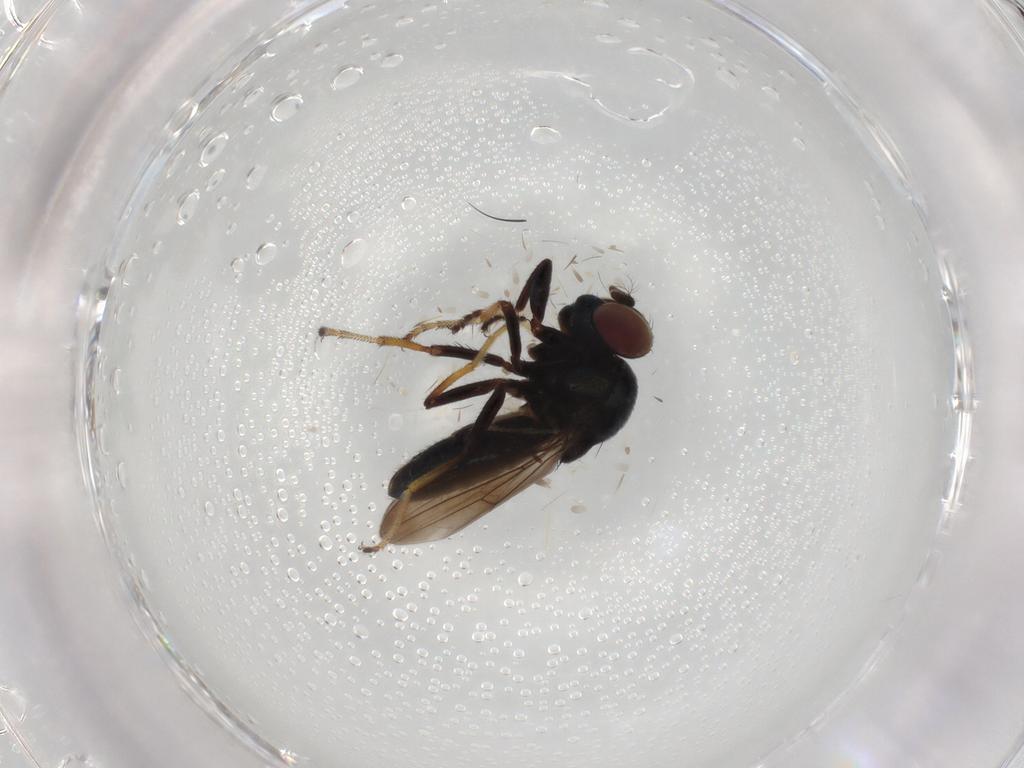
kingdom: Animalia
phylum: Arthropoda
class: Insecta
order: Diptera
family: Ephydridae
